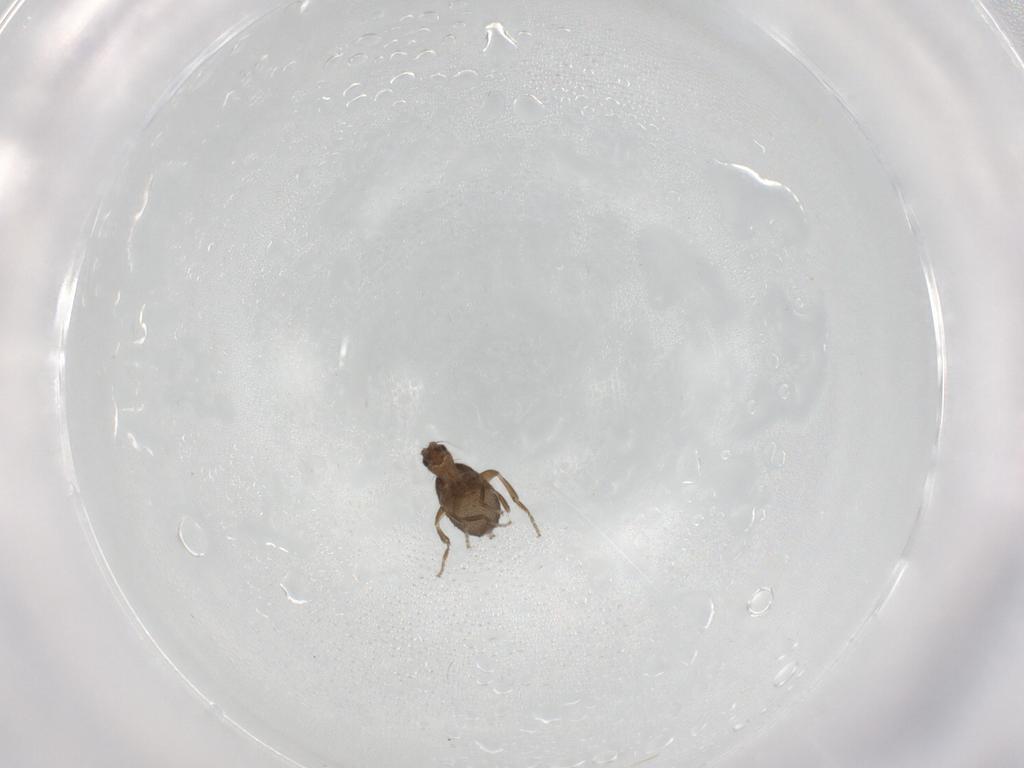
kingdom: Animalia
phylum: Arthropoda
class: Insecta
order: Diptera
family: Phoridae
